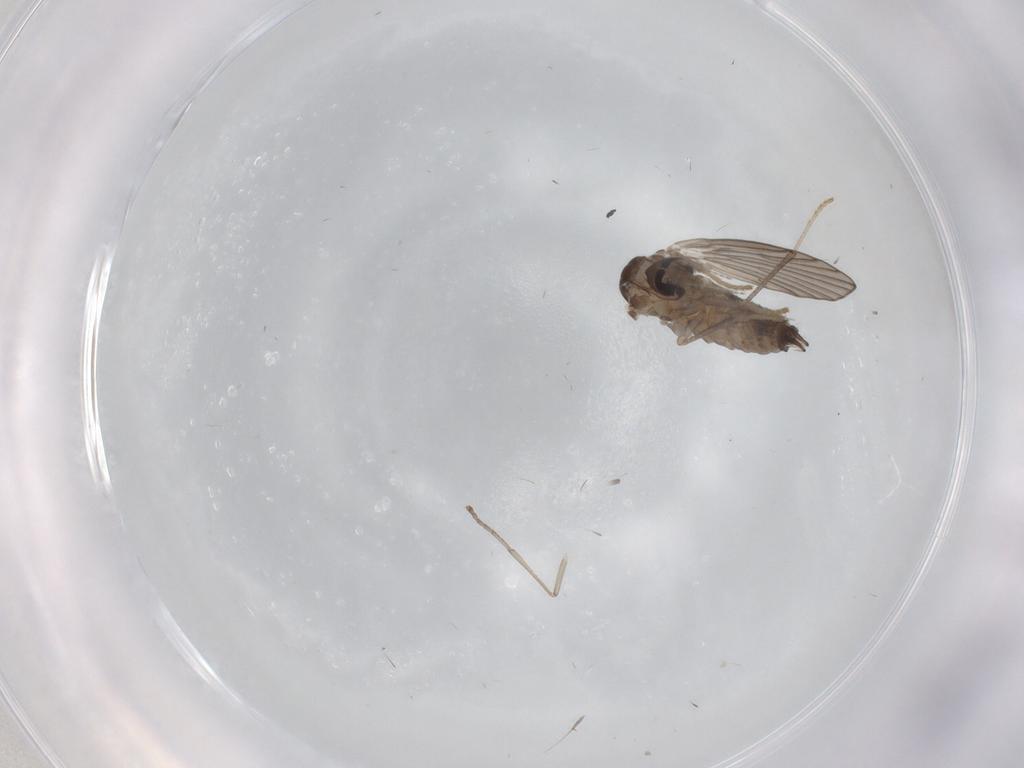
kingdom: Animalia
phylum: Arthropoda
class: Insecta
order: Diptera
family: Psychodidae
